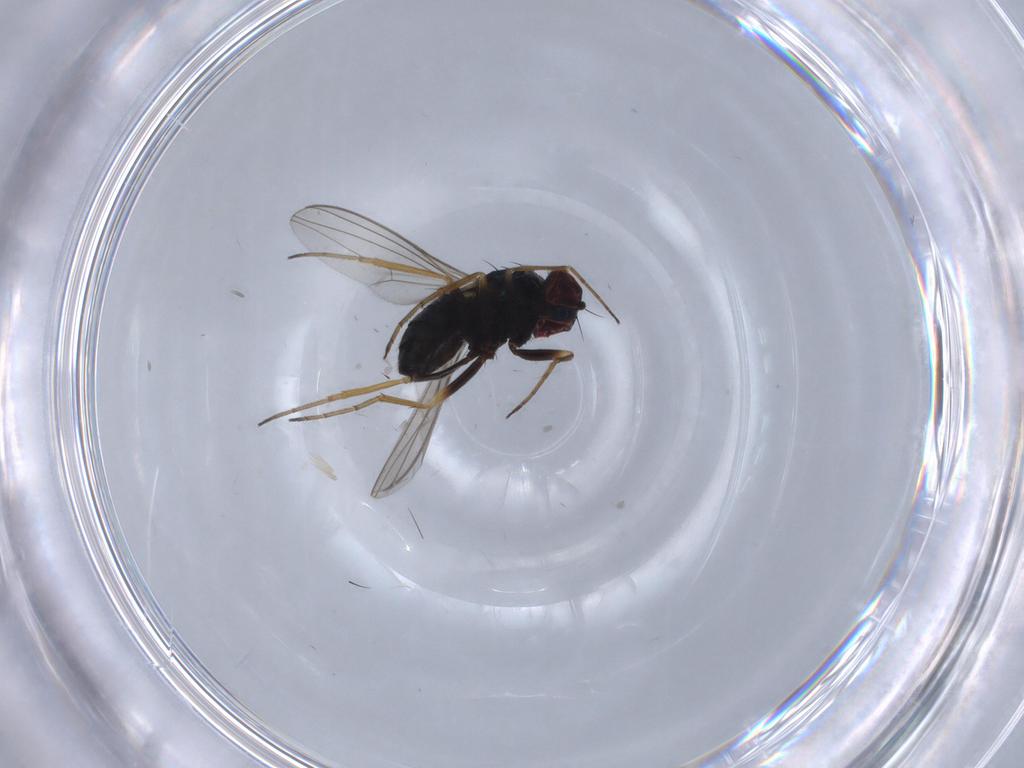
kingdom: Animalia
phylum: Arthropoda
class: Insecta
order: Diptera
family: Dolichopodidae
